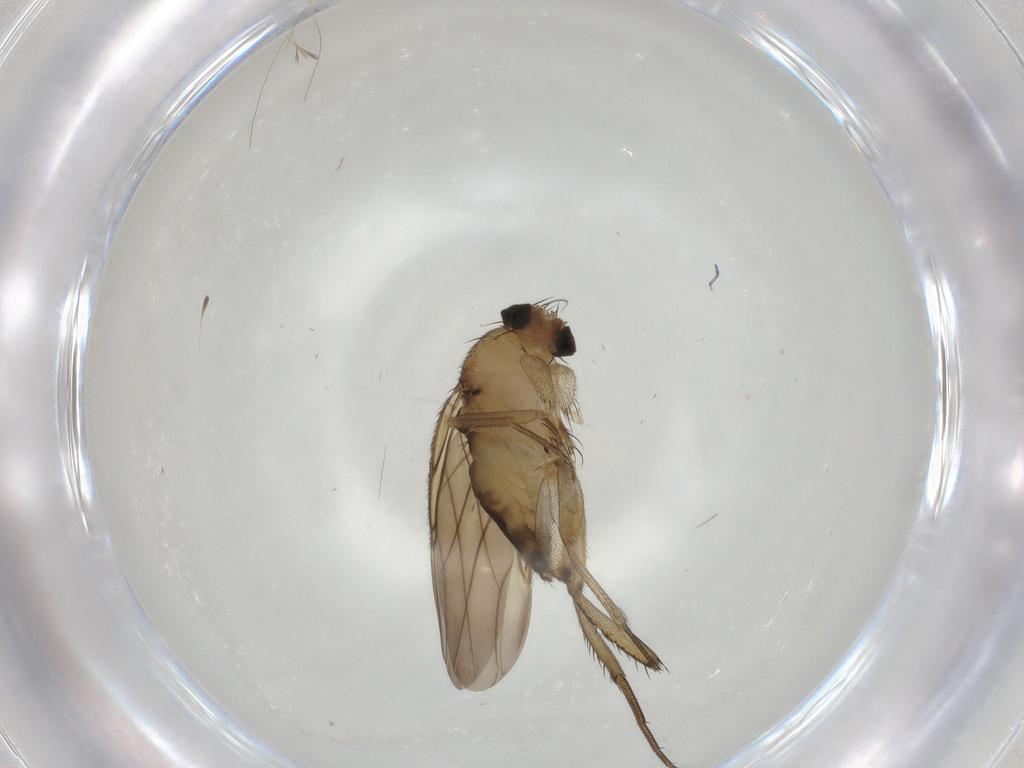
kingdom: Animalia
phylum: Arthropoda
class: Insecta
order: Diptera
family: Phoridae
